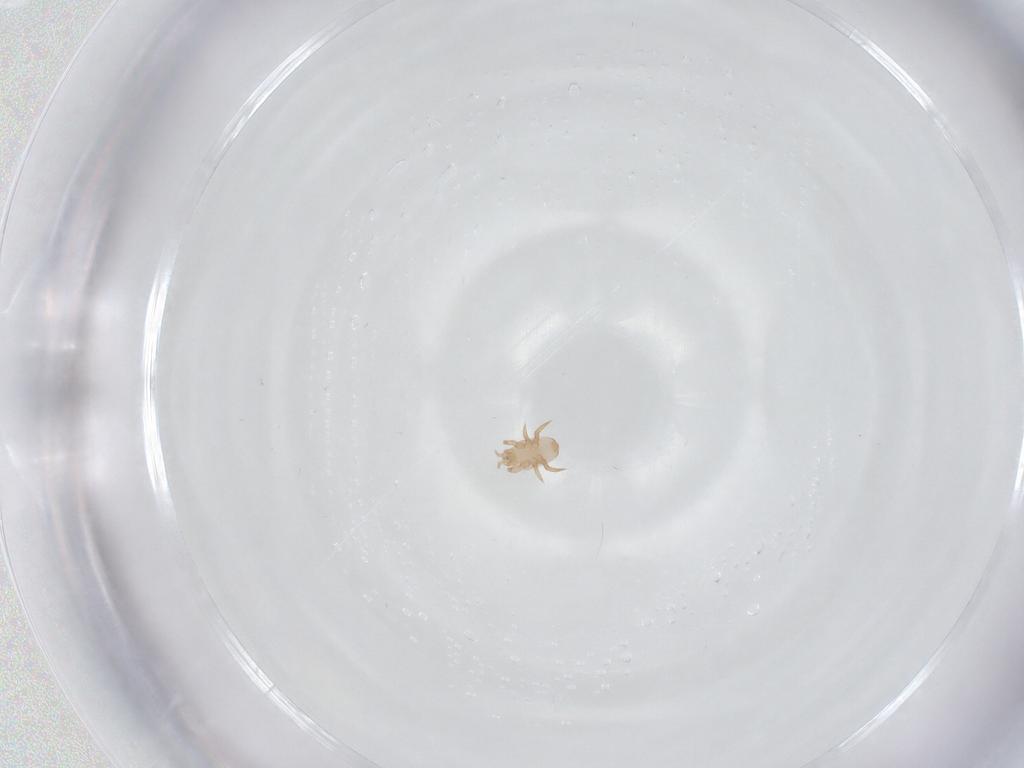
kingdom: Animalia
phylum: Arthropoda
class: Arachnida
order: Mesostigmata
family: Halolaelapidae
